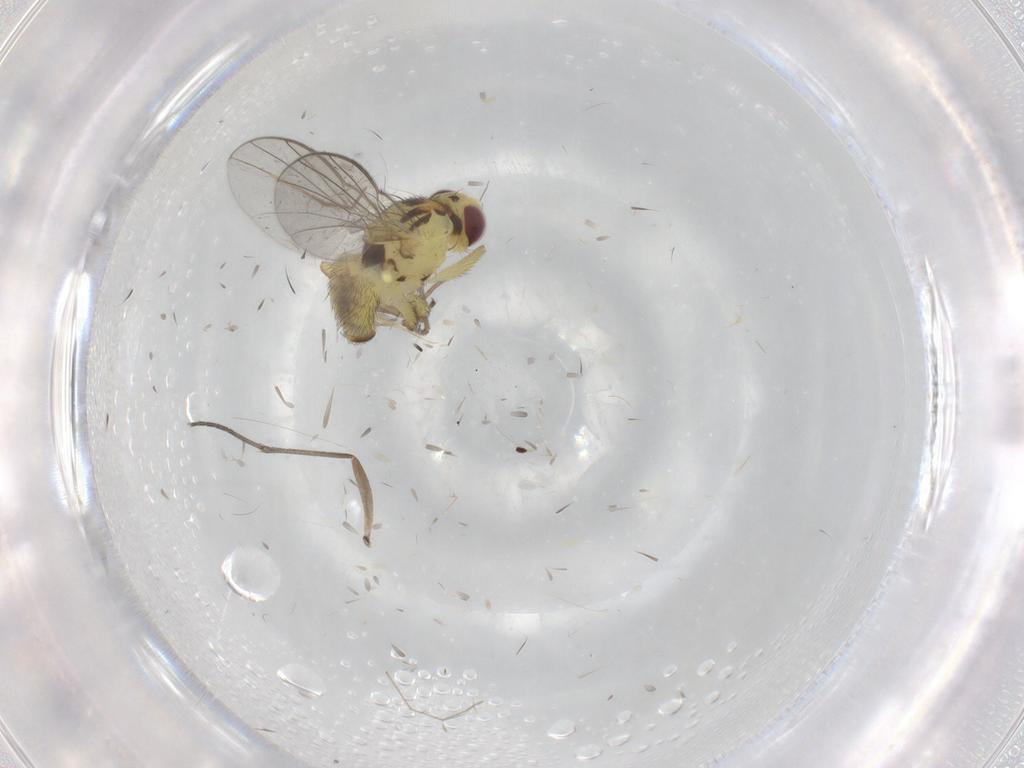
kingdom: Animalia
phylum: Arthropoda
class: Insecta
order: Diptera
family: Agromyzidae
